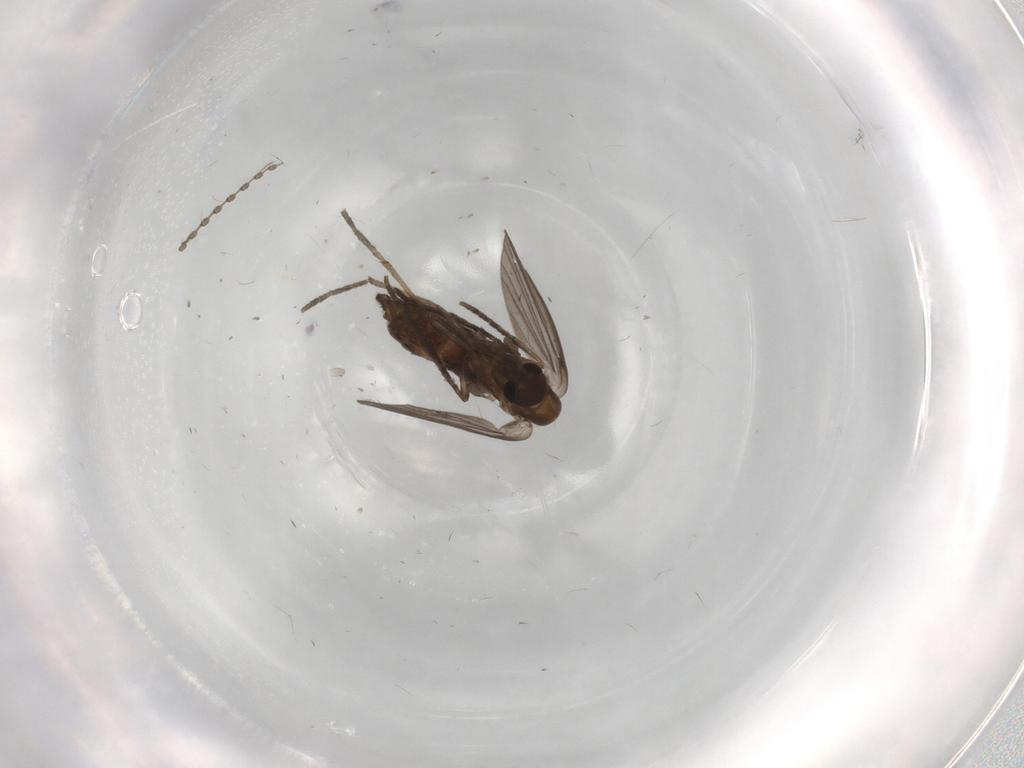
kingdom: Animalia
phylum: Arthropoda
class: Insecta
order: Diptera
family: Cecidomyiidae
